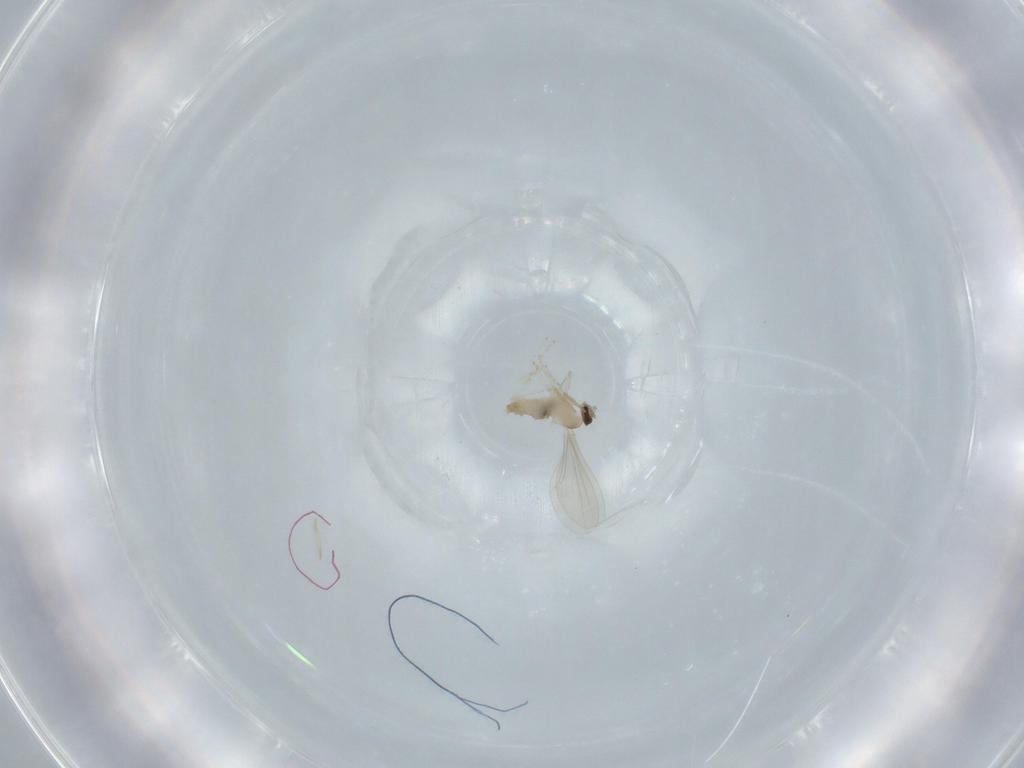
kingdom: Animalia
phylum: Arthropoda
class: Insecta
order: Diptera
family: Cecidomyiidae
